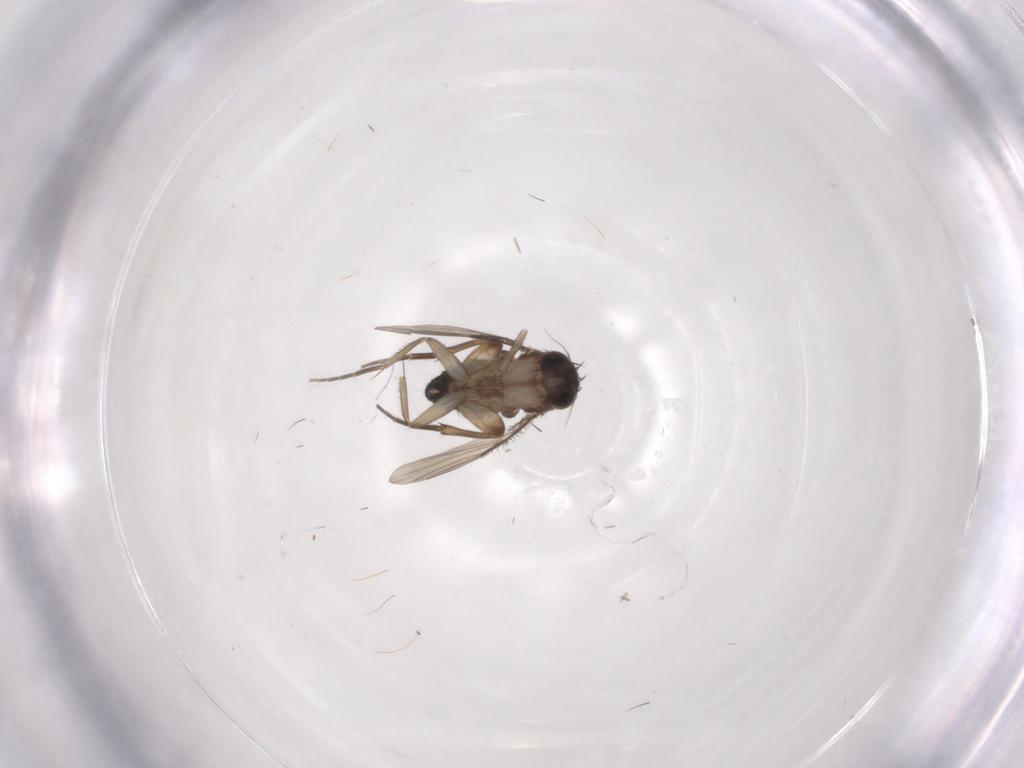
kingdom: Animalia
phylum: Arthropoda
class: Insecta
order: Diptera
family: Phoridae
